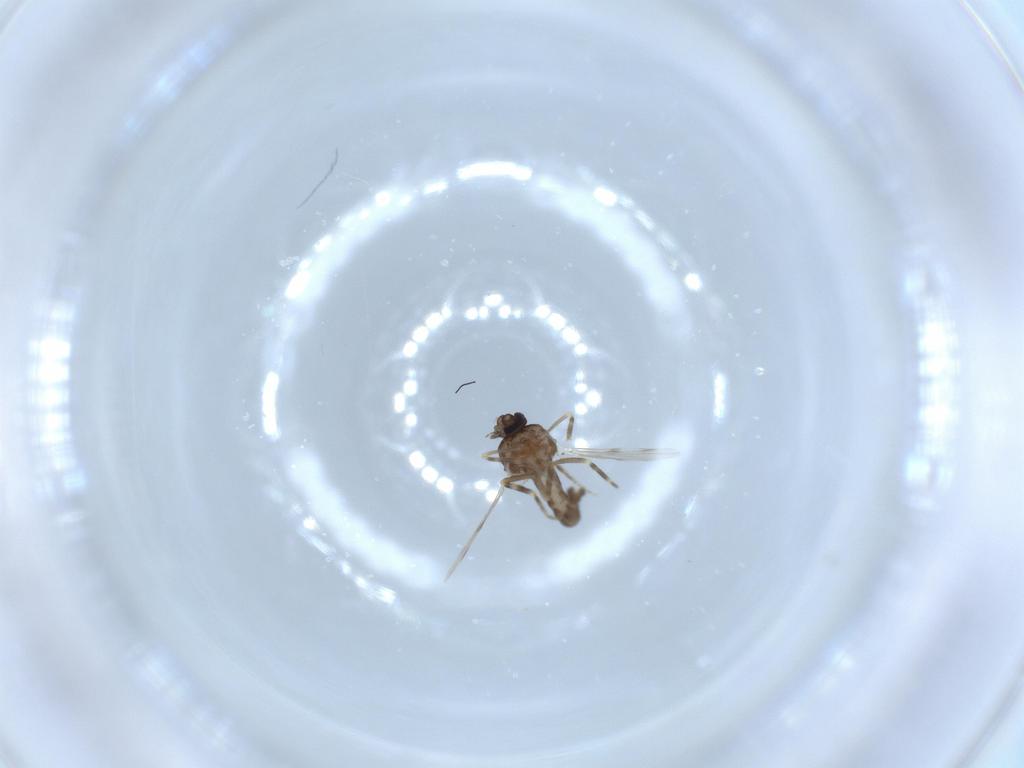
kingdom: Animalia
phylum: Arthropoda
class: Insecta
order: Diptera
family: Ceratopogonidae
